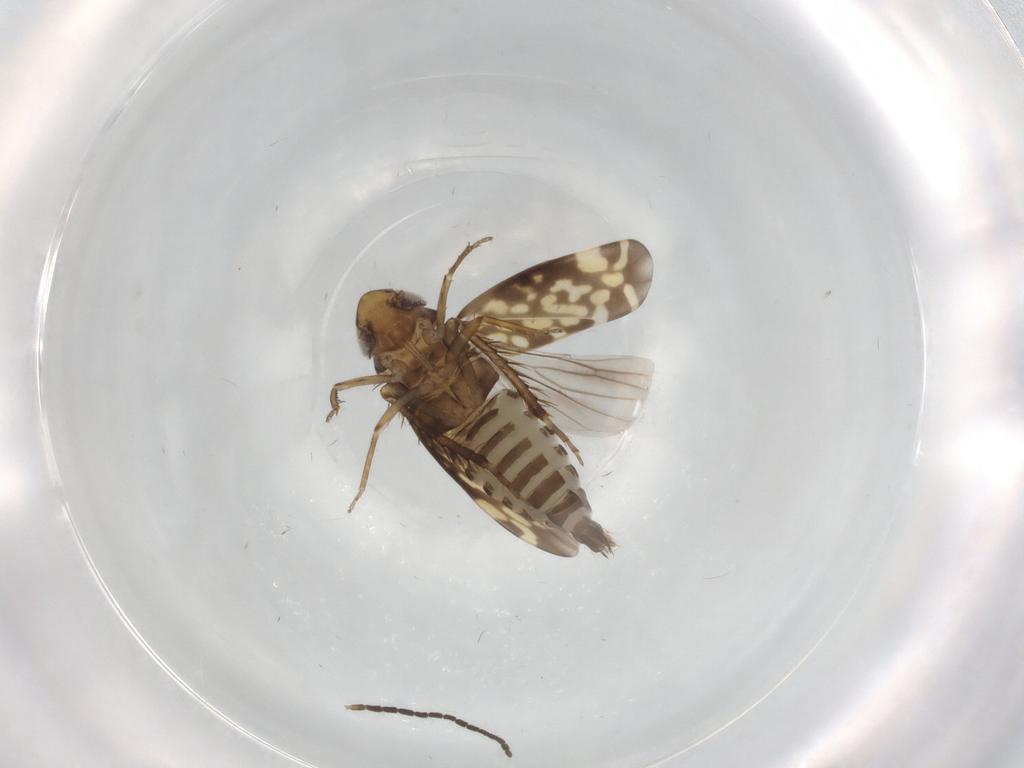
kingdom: Animalia
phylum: Arthropoda
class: Insecta
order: Hemiptera
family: Cicadellidae
